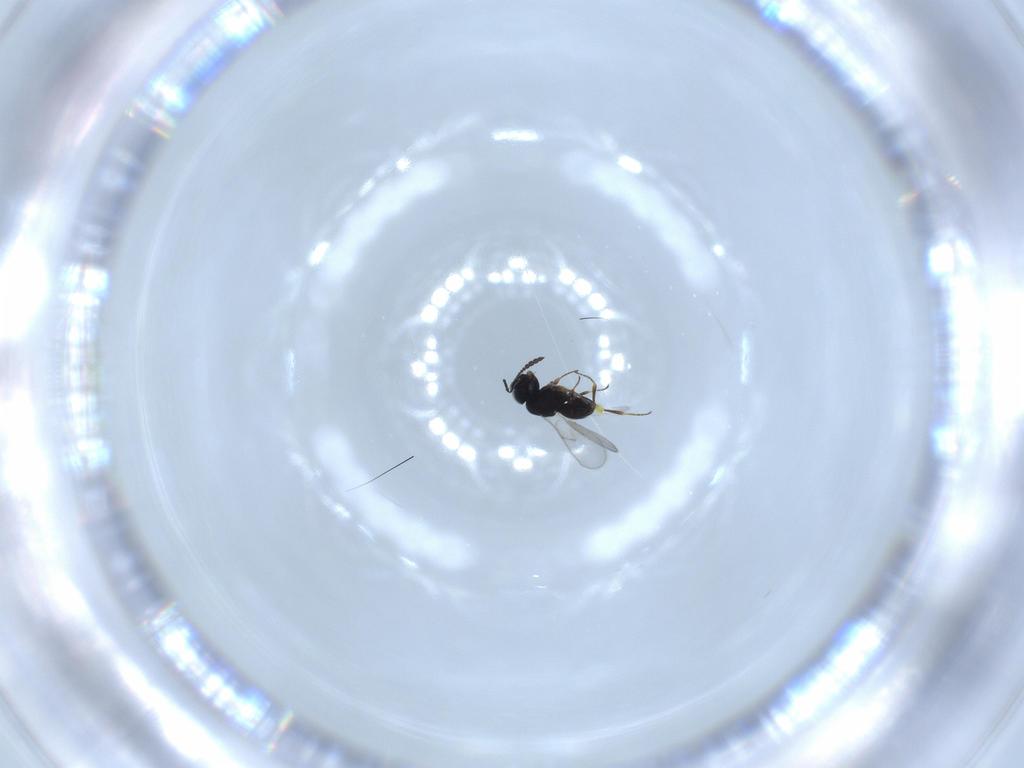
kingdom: Animalia
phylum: Arthropoda
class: Insecta
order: Hymenoptera
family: Scelionidae
